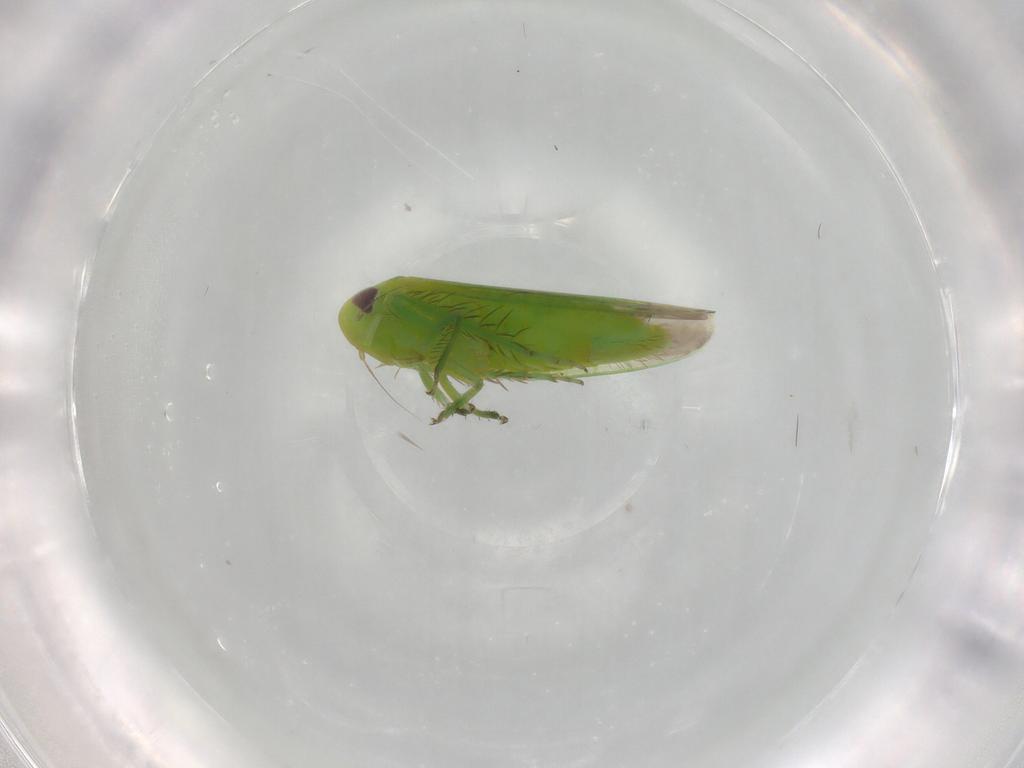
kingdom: Animalia
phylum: Arthropoda
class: Insecta
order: Hemiptera
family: Cicadellidae
